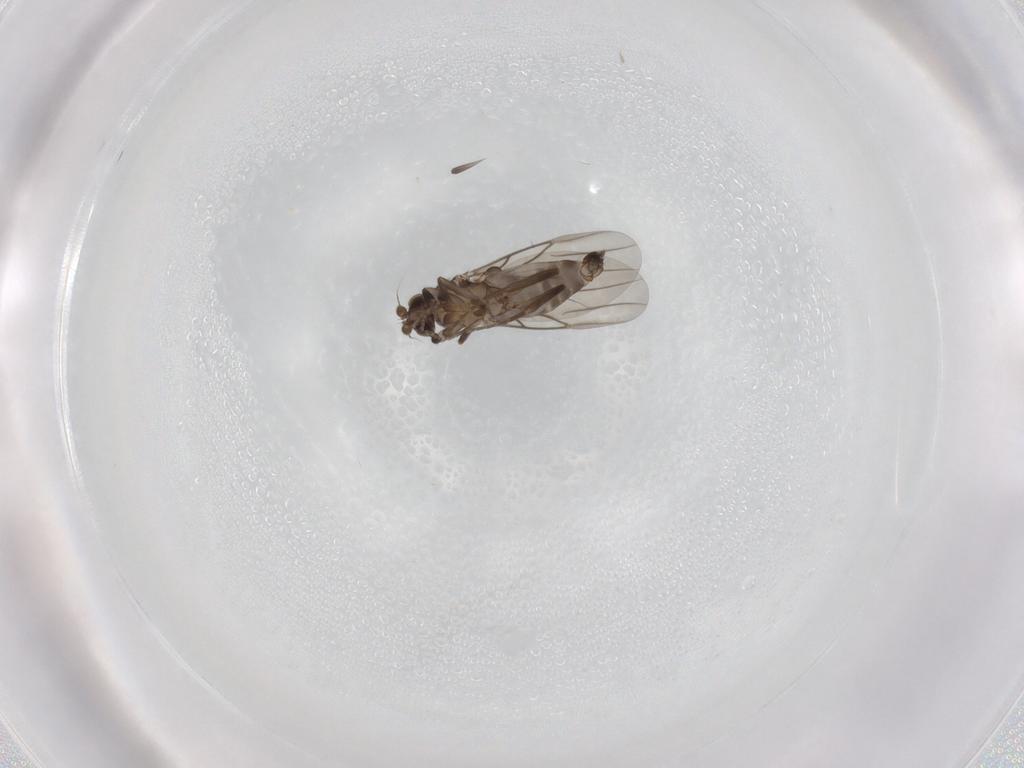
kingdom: Animalia
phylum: Arthropoda
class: Insecta
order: Diptera
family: Phoridae
